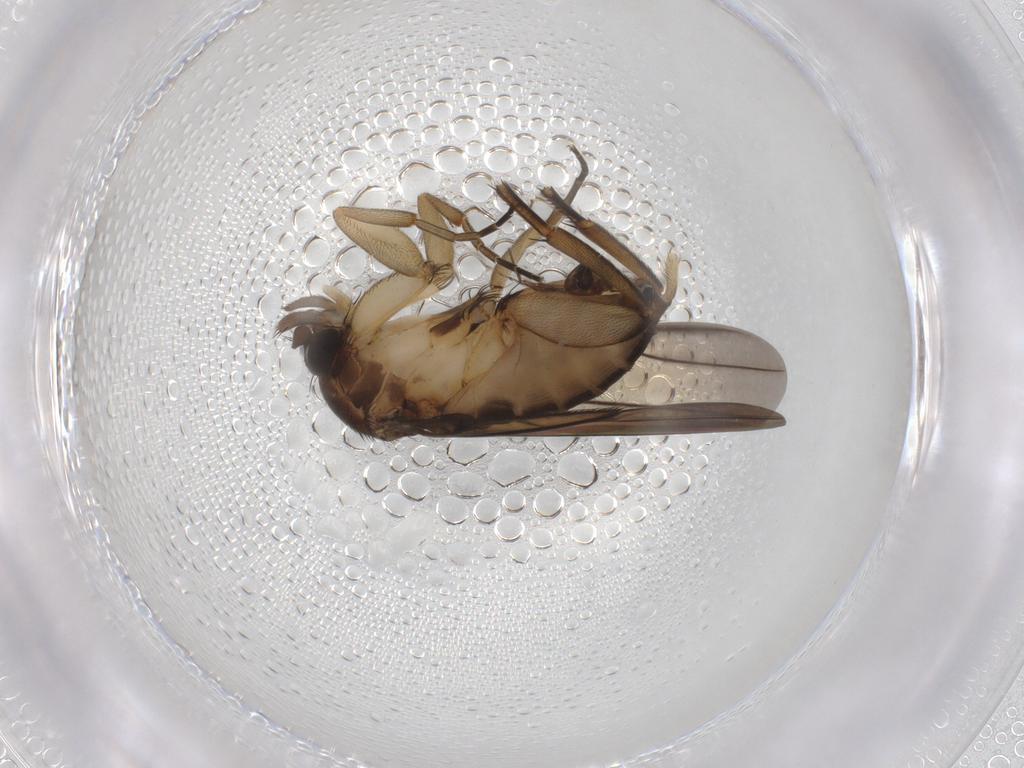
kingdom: Animalia
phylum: Arthropoda
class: Insecta
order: Diptera
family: Phoridae
